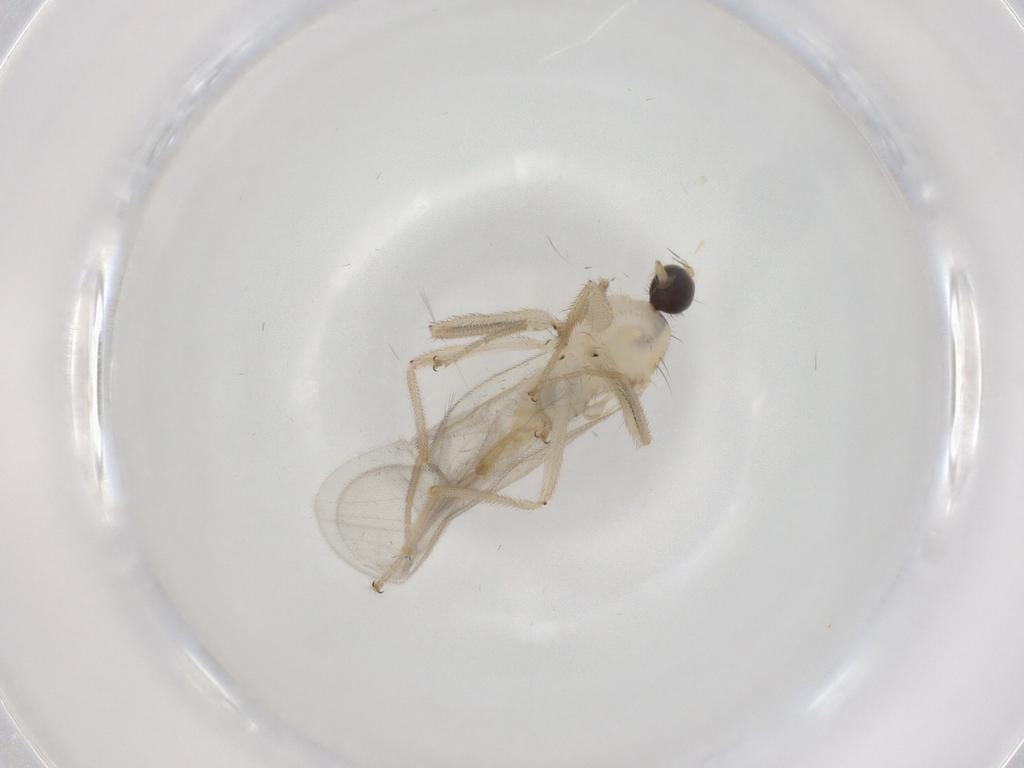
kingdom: Animalia
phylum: Arthropoda
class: Insecta
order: Diptera
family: Hybotidae
